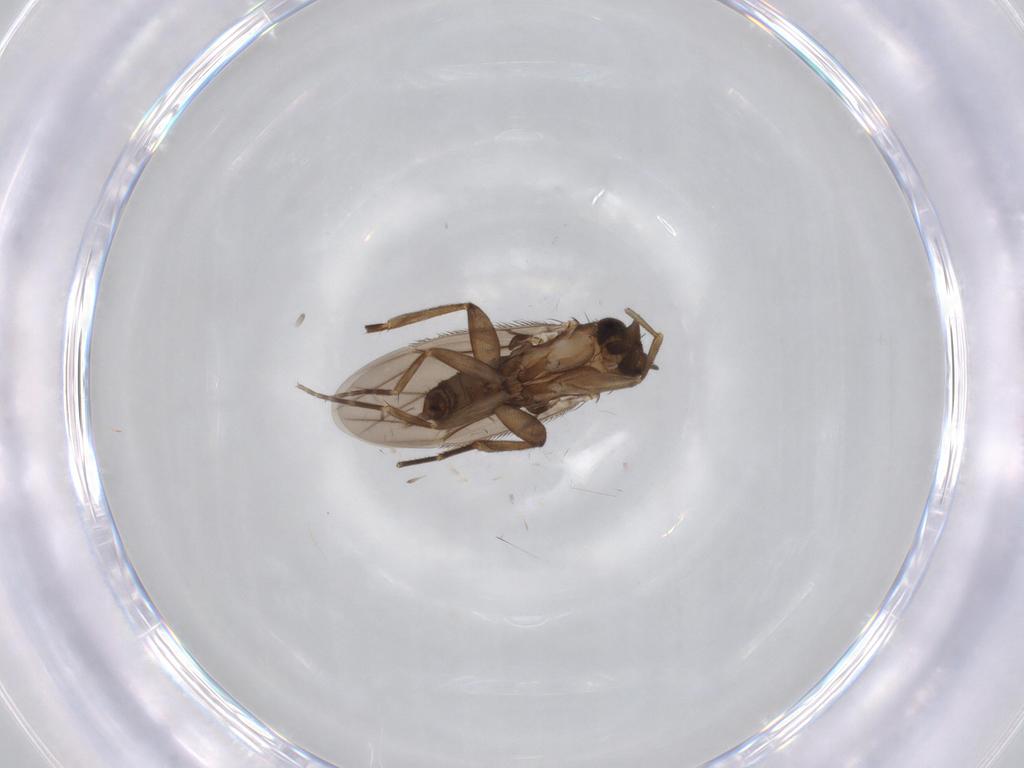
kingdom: Animalia
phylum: Arthropoda
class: Insecta
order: Diptera
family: Phoridae
